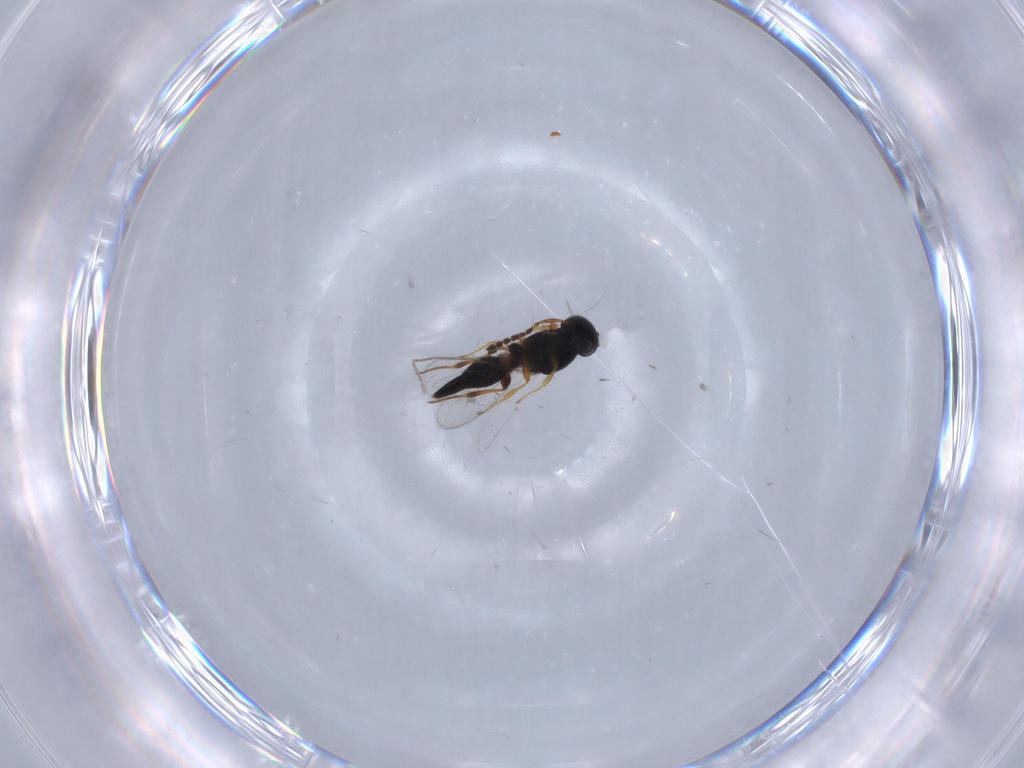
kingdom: Animalia
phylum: Arthropoda
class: Insecta
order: Hymenoptera
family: Platygastridae
